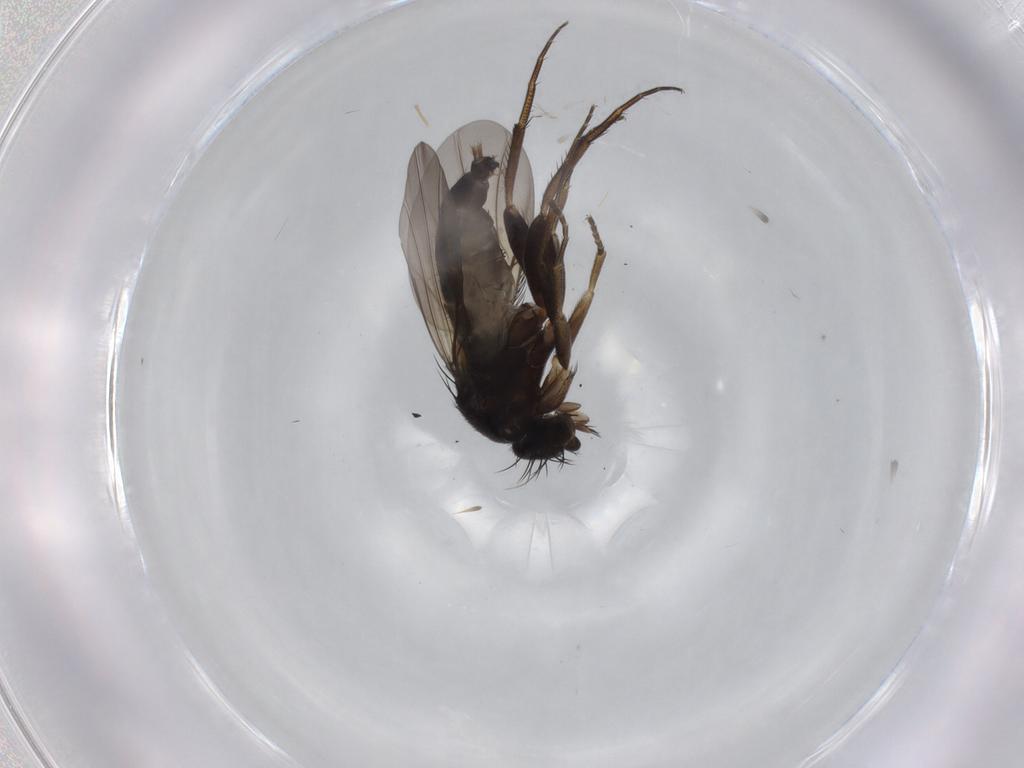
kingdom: Animalia
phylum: Arthropoda
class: Insecta
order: Diptera
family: Phoridae
